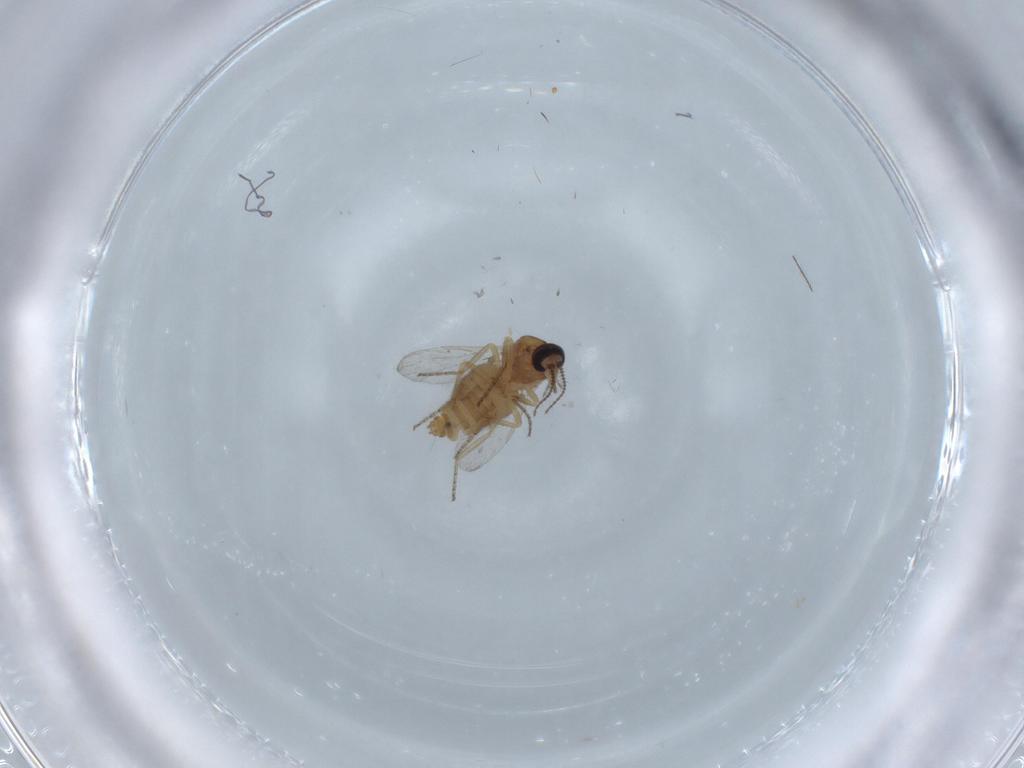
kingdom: Animalia
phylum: Arthropoda
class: Insecta
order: Diptera
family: Ceratopogonidae
